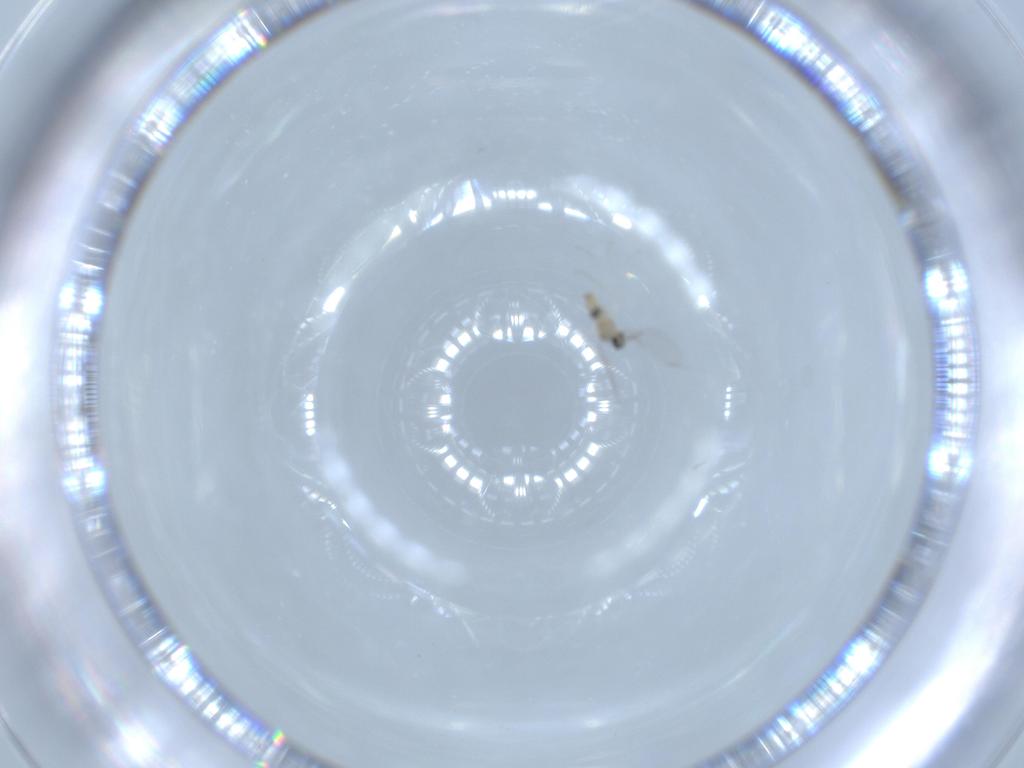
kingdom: Animalia
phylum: Arthropoda
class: Insecta
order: Diptera
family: Cecidomyiidae
